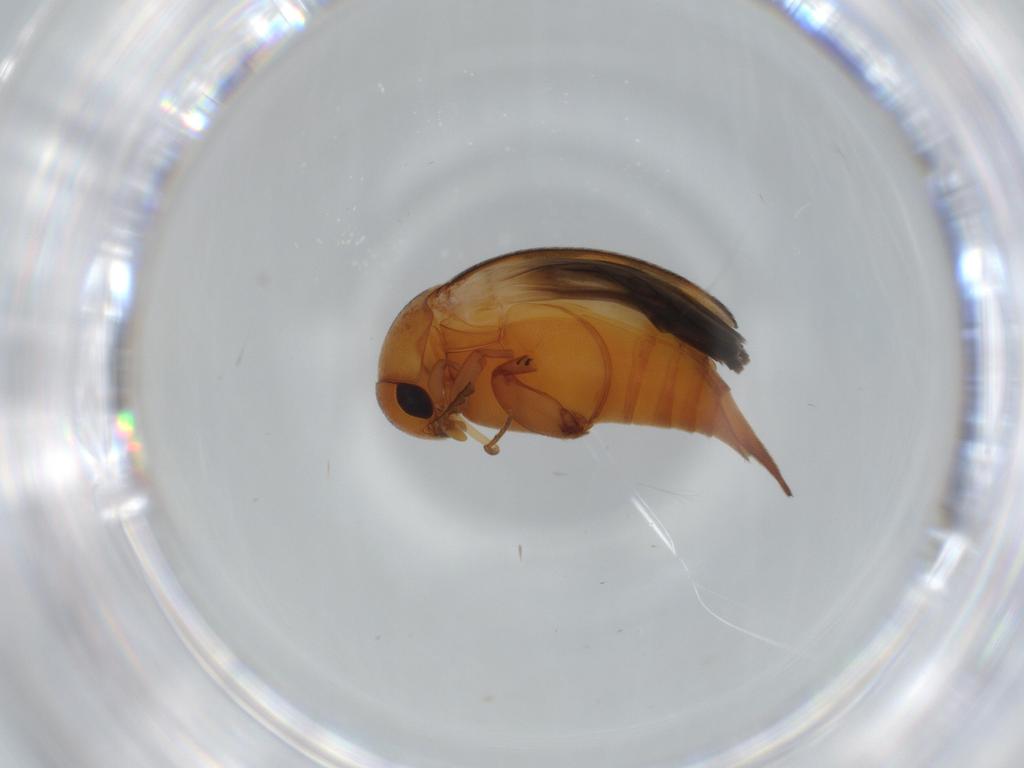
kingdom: Animalia
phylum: Arthropoda
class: Insecta
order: Coleoptera
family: Mordellidae
